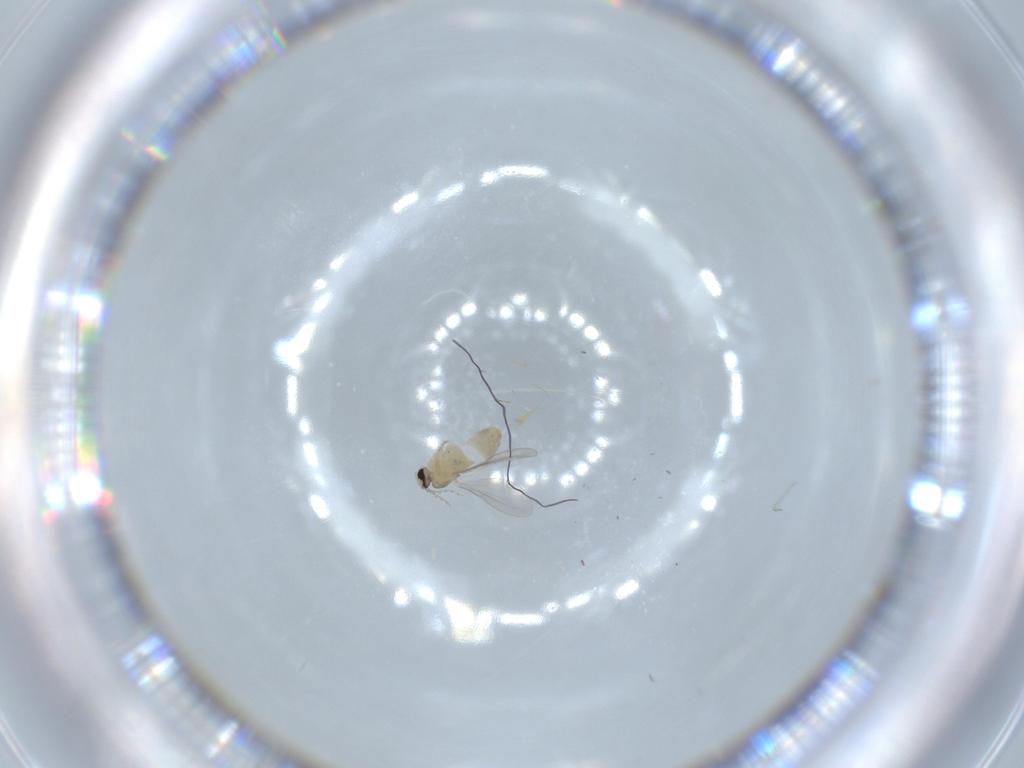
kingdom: Animalia
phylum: Arthropoda
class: Insecta
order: Diptera
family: Cecidomyiidae
